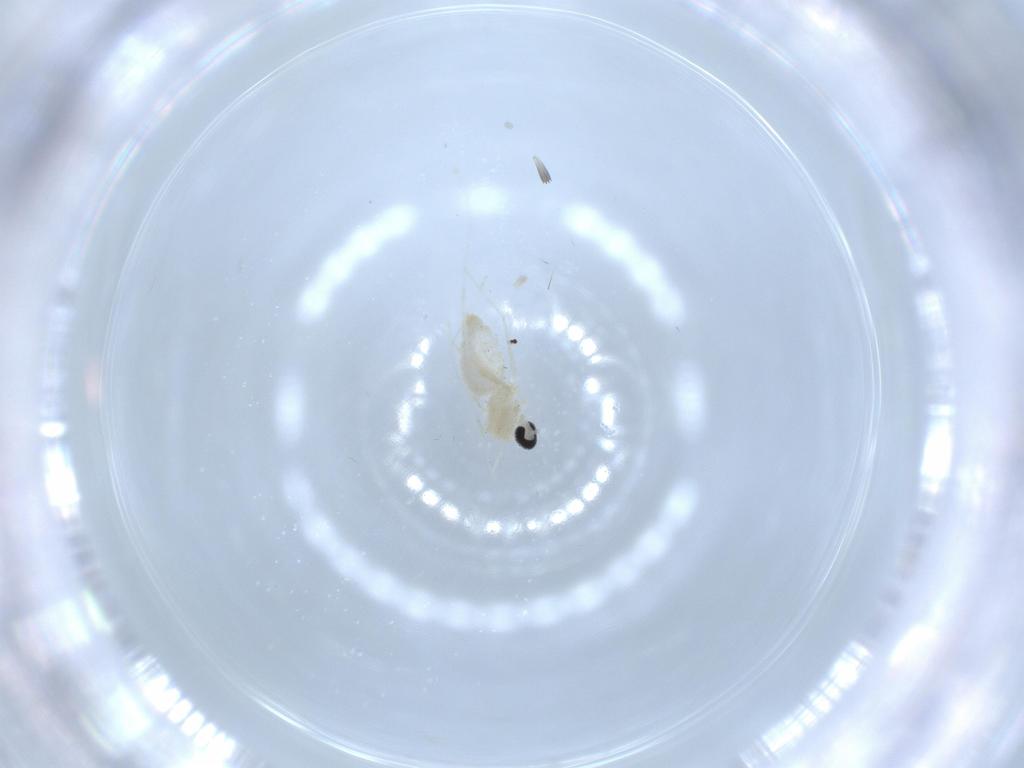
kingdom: Animalia
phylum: Arthropoda
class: Insecta
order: Diptera
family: Cecidomyiidae
